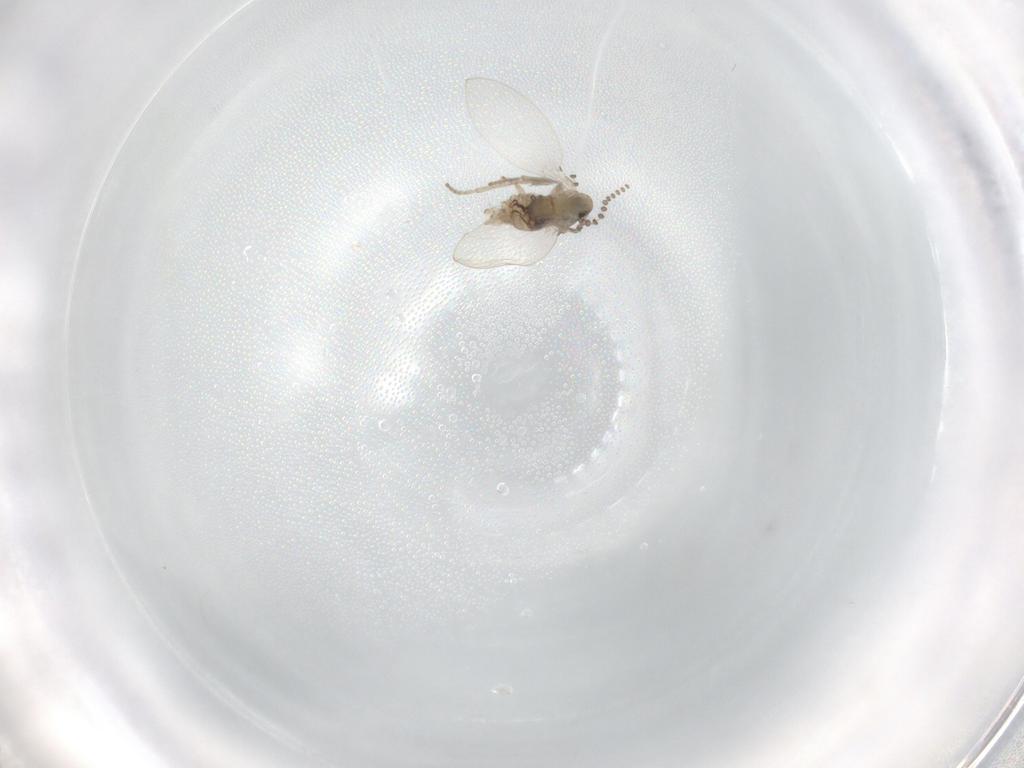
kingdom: Animalia
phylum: Arthropoda
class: Insecta
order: Diptera
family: Psychodidae
